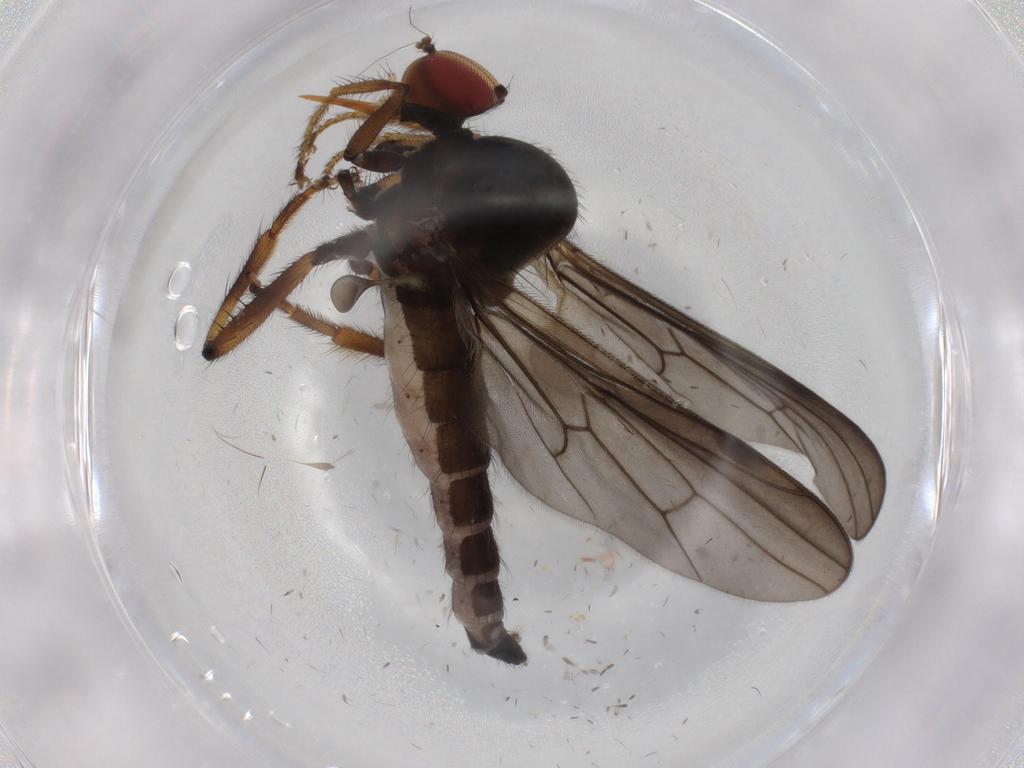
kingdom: Animalia
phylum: Arthropoda
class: Insecta
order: Diptera
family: Hybotidae
